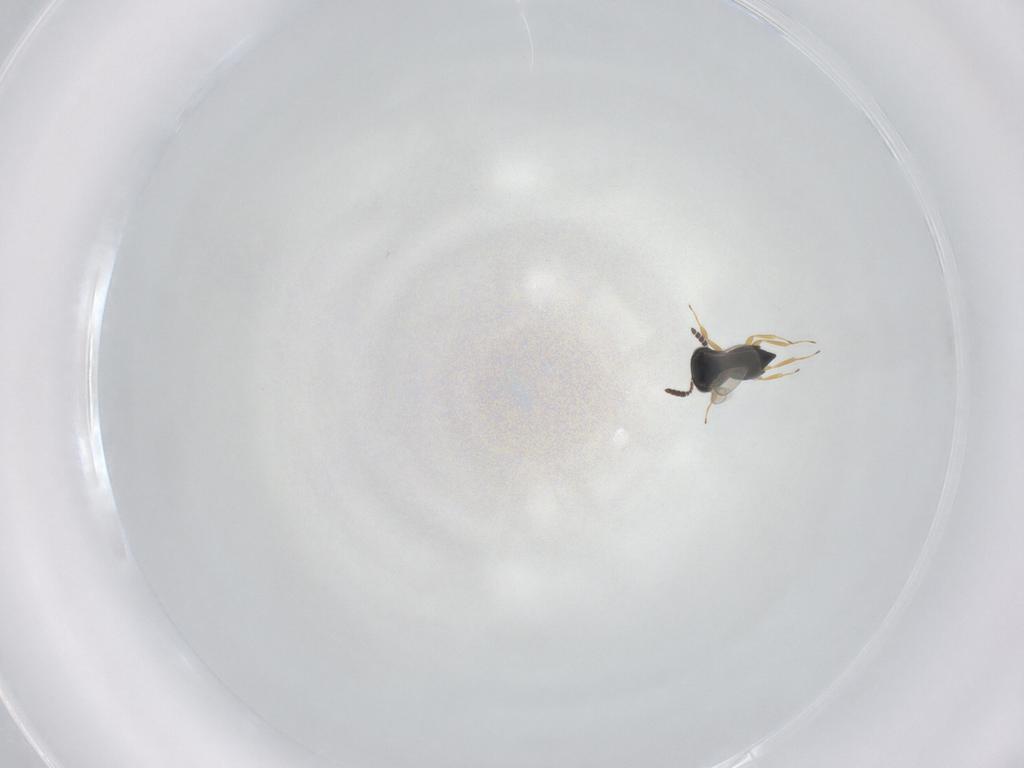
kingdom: Animalia
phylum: Arthropoda
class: Insecta
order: Hymenoptera
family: Scelionidae
